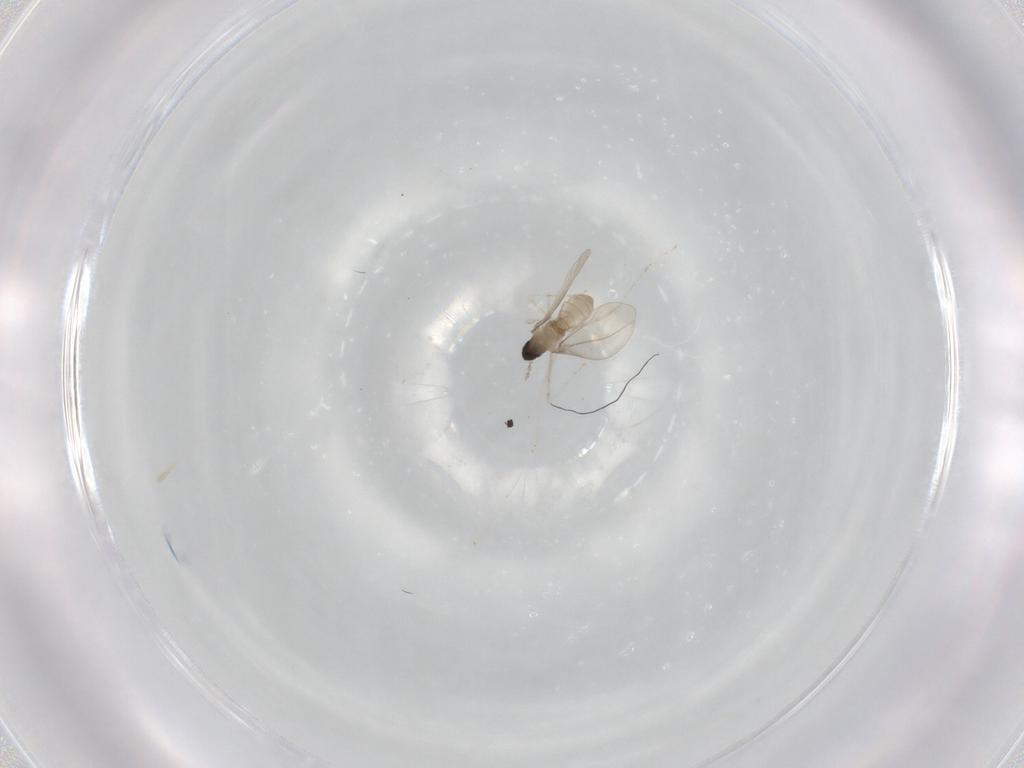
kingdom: Animalia
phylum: Arthropoda
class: Insecta
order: Diptera
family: Cecidomyiidae
